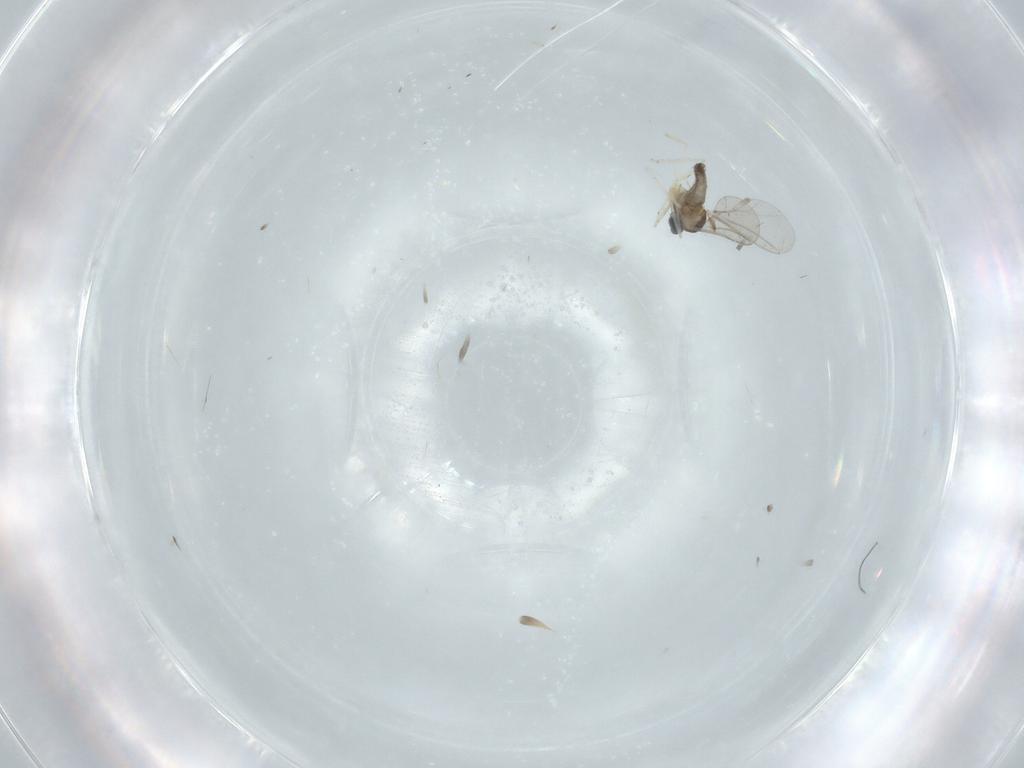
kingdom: Animalia
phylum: Arthropoda
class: Insecta
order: Diptera
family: Cecidomyiidae
